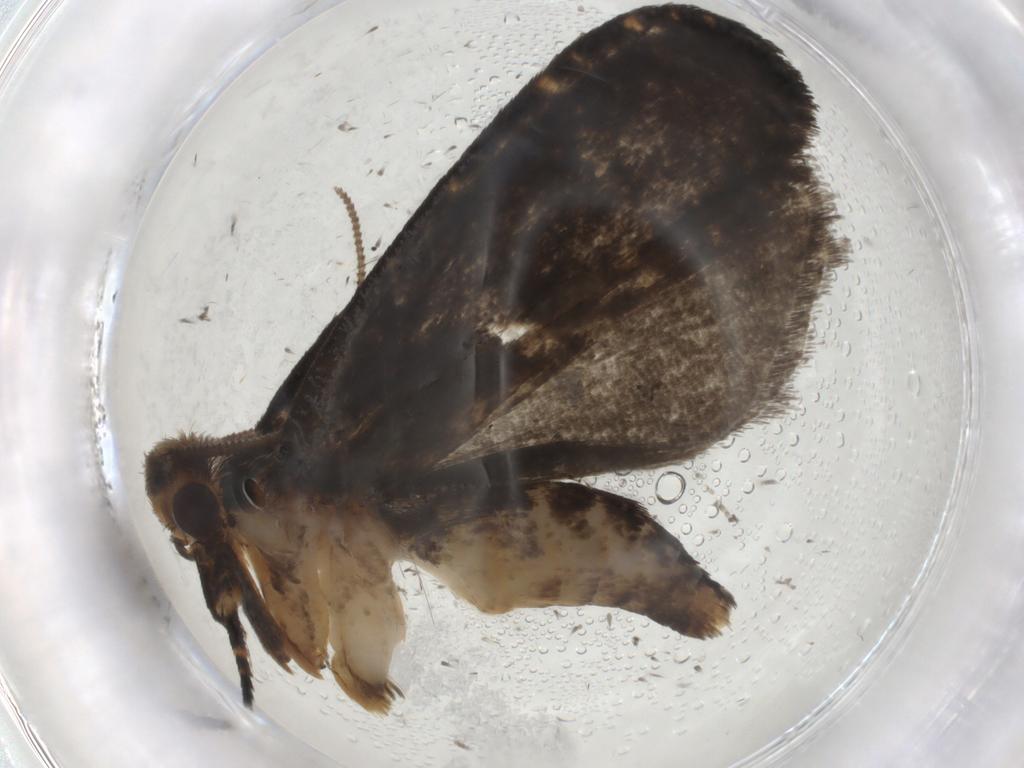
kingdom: Animalia
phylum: Arthropoda
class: Insecta
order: Lepidoptera
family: Tineidae
